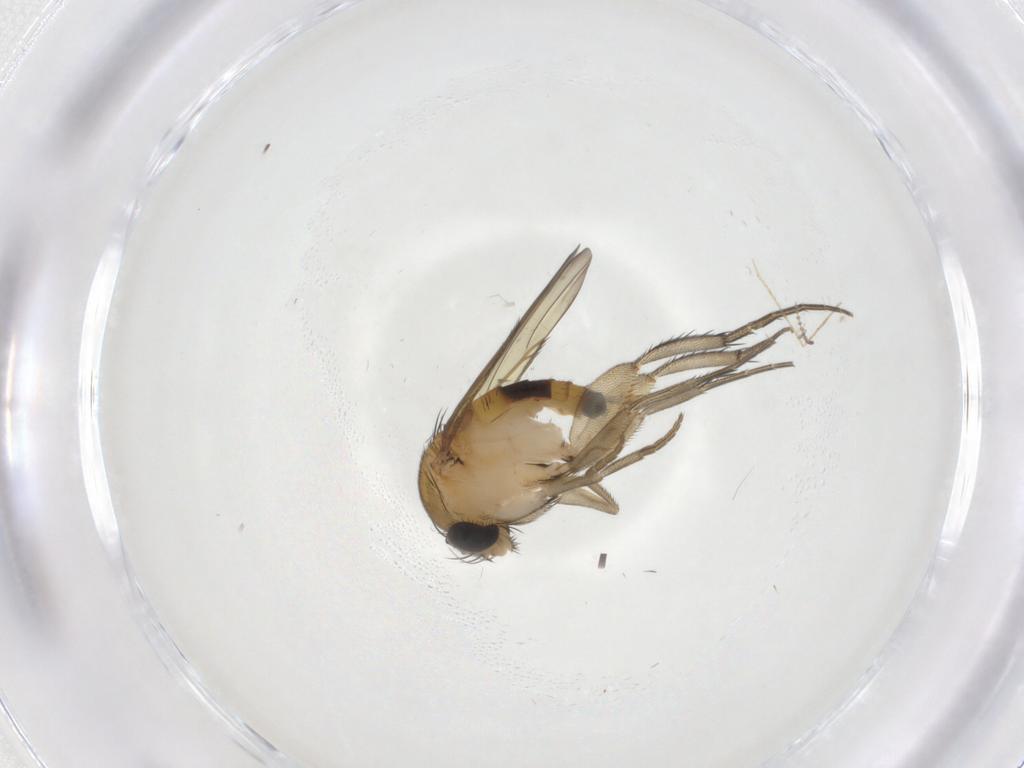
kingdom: Animalia
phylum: Arthropoda
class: Insecta
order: Diptera
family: Phoridae
